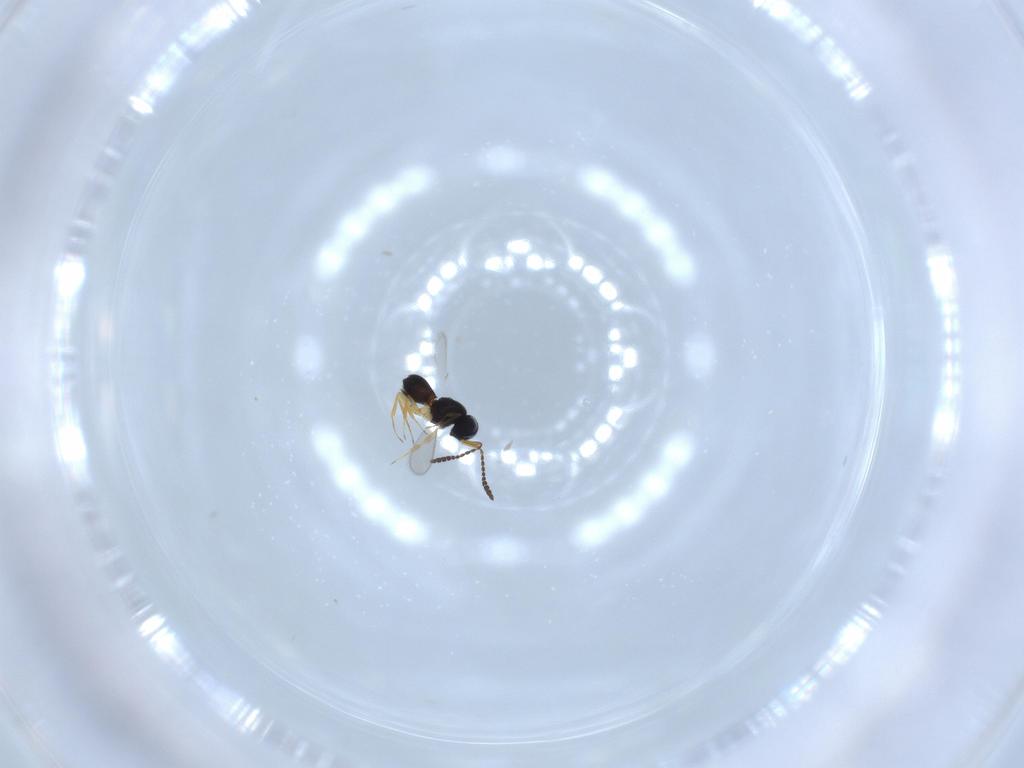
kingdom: Animalia
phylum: Arthropoda
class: Insecta
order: Hymenoptera
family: Scelionidae
